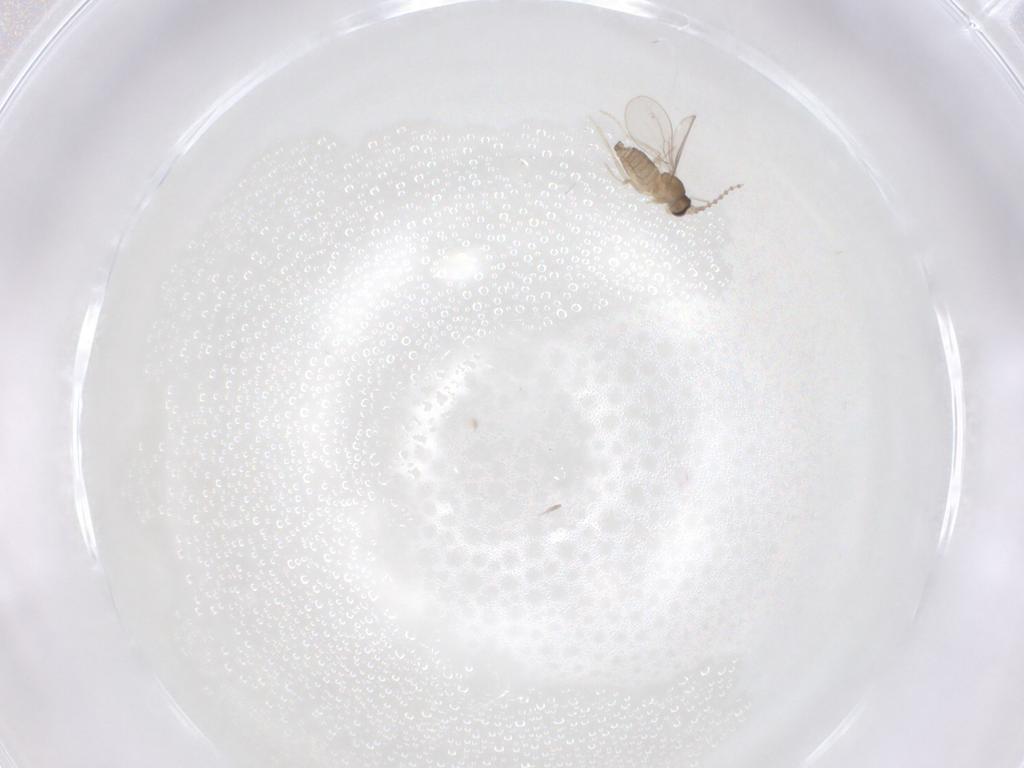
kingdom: Animalia
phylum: Arthropoda
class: Insecta
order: Diptera
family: Cecidomyiidae
